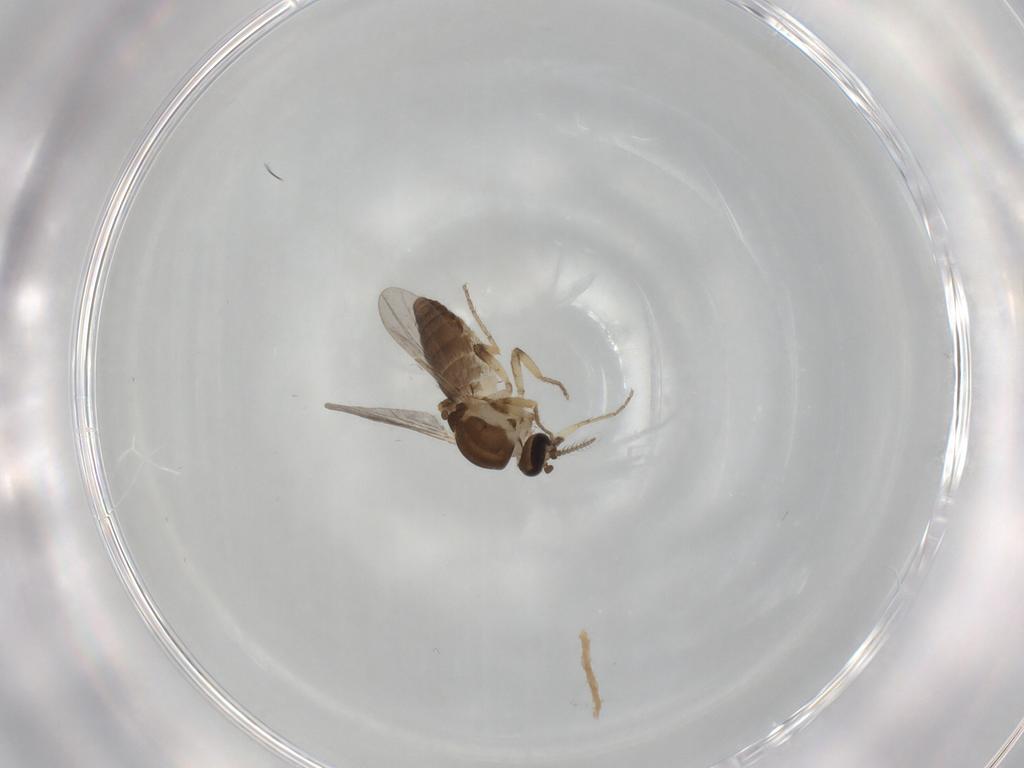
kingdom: Animalia
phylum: Arthropoda
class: Insecta
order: Diptera
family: Ceratopogonidae
